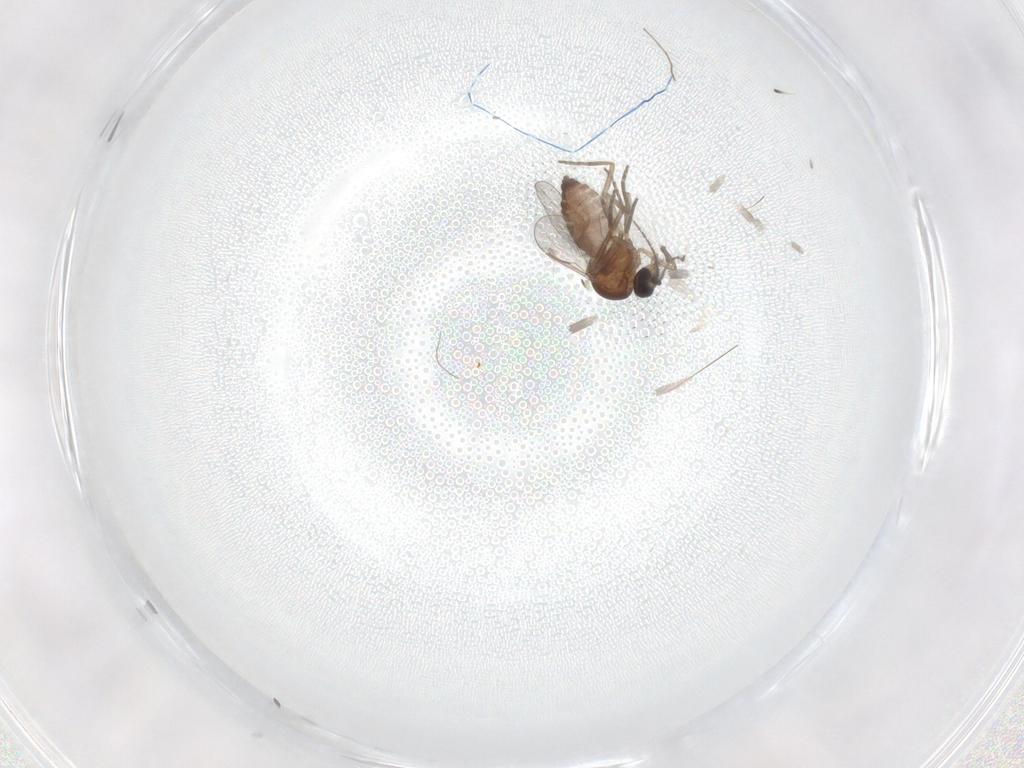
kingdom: Animalia
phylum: Arthropoda
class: Insecta
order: Diptera
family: Ceratopogonidae
